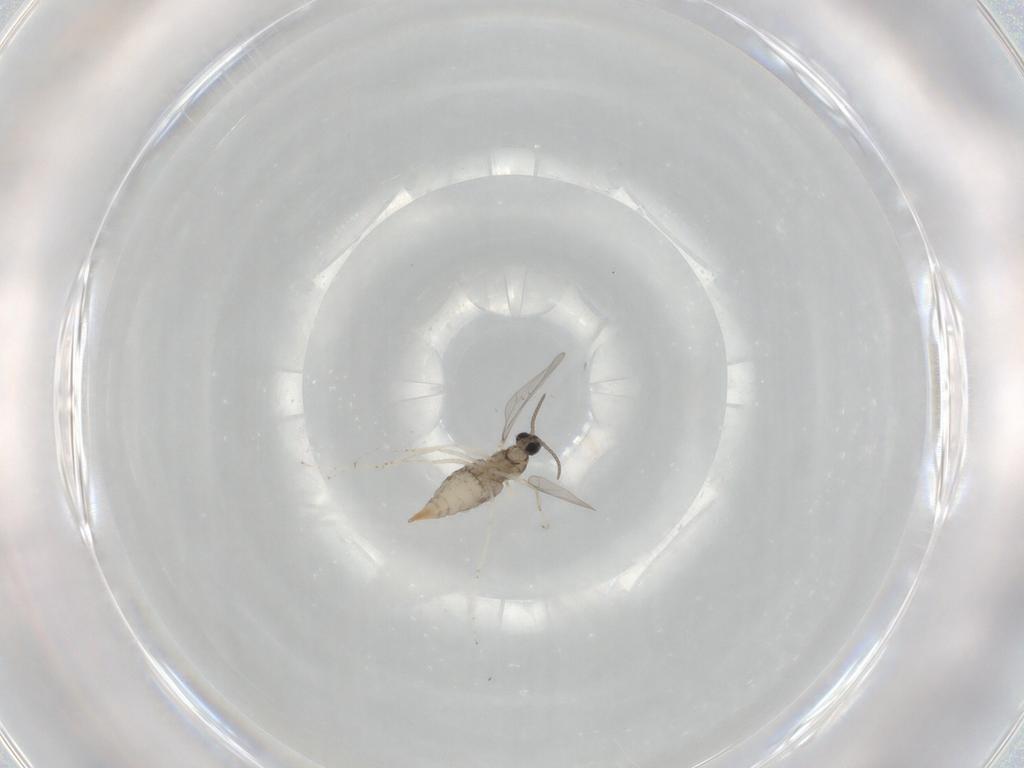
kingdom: Animalia
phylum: Arthropoda
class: Insecta
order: Diptera
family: Cecidomyiidae
